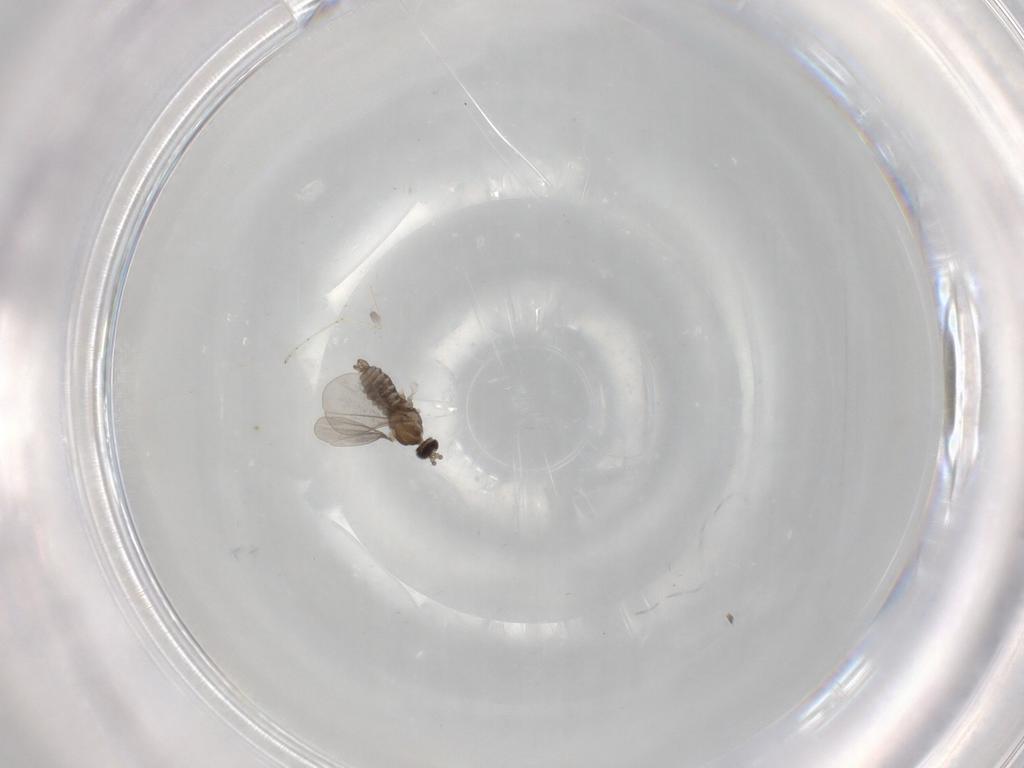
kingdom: Animalia
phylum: Arthropoda
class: Insecta
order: Diptera
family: Cecidomyiidae
